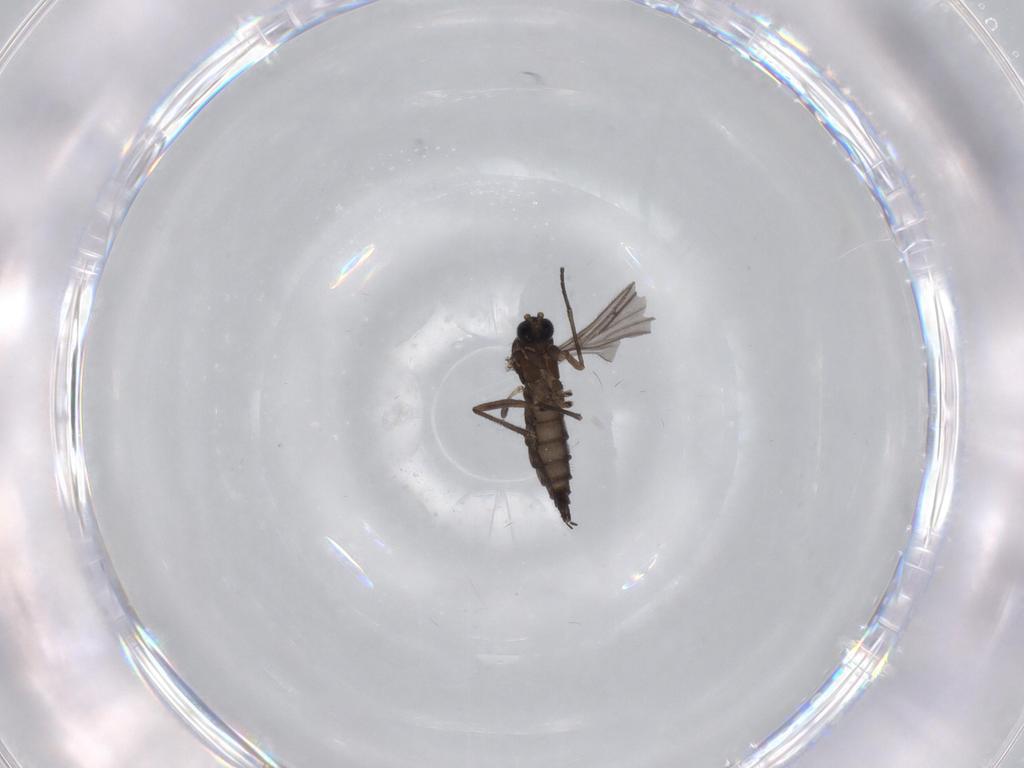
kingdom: Animalia
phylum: Arthropoda
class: Insecta
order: Diptera
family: Sciaridae
